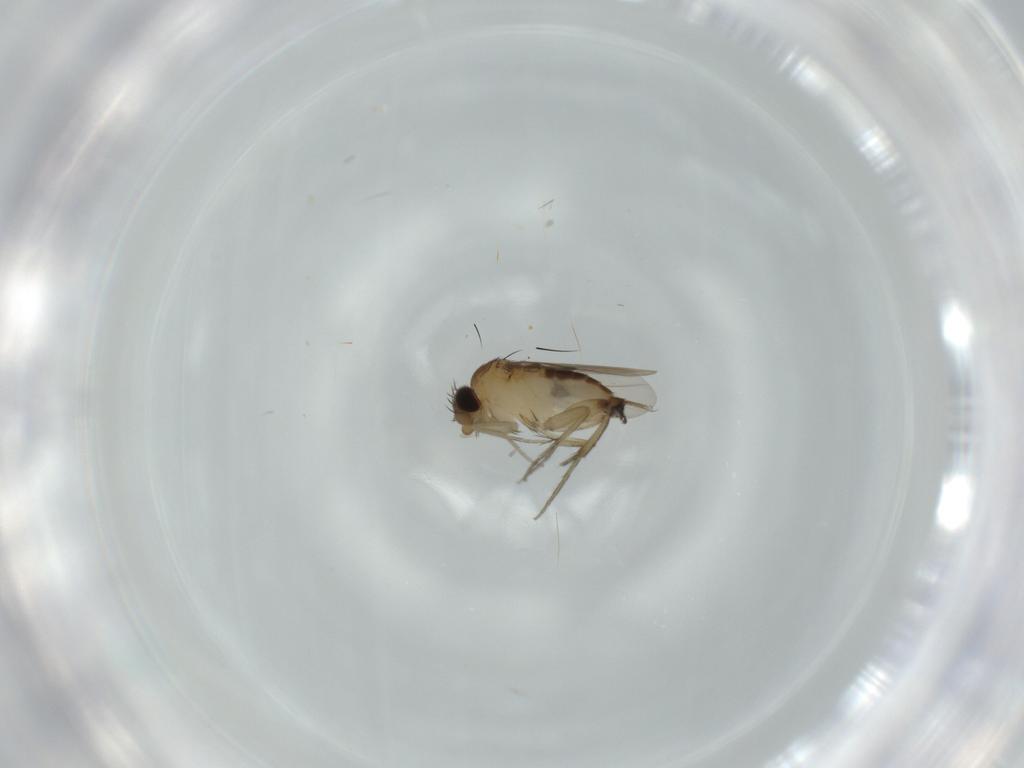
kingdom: Animalia
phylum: Arthropoda
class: Insecta
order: Diptera
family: Phoridae
